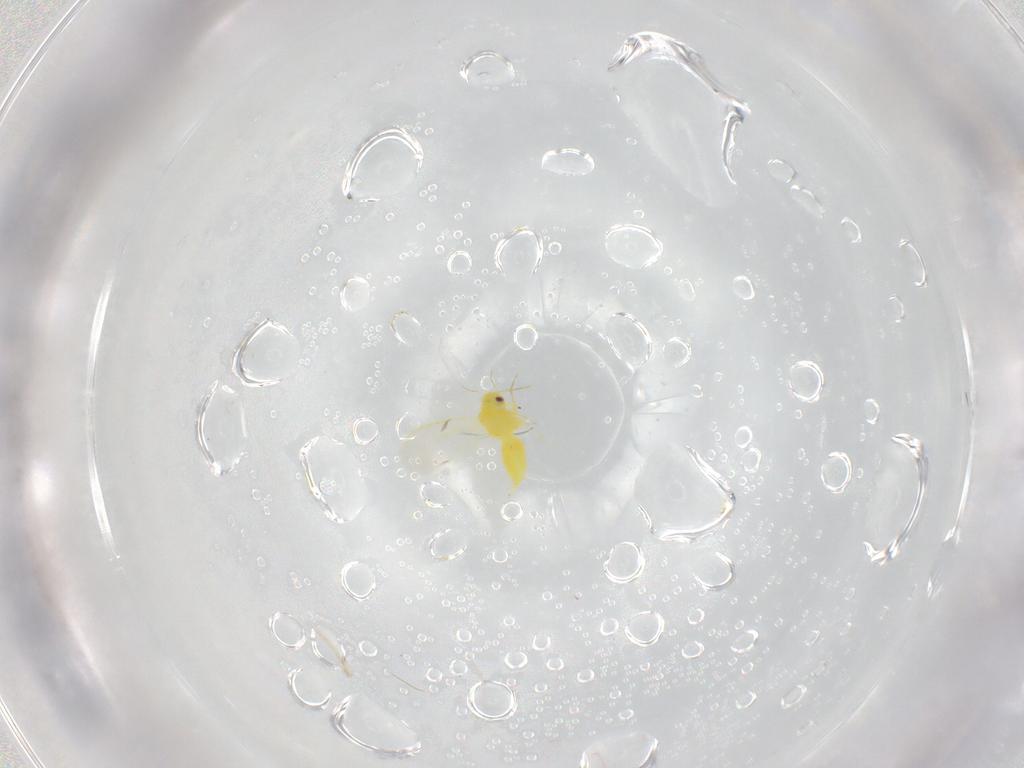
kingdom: Animalia
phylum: Arthropoda
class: Insecta
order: Hemiptera
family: Aleyrodidae
